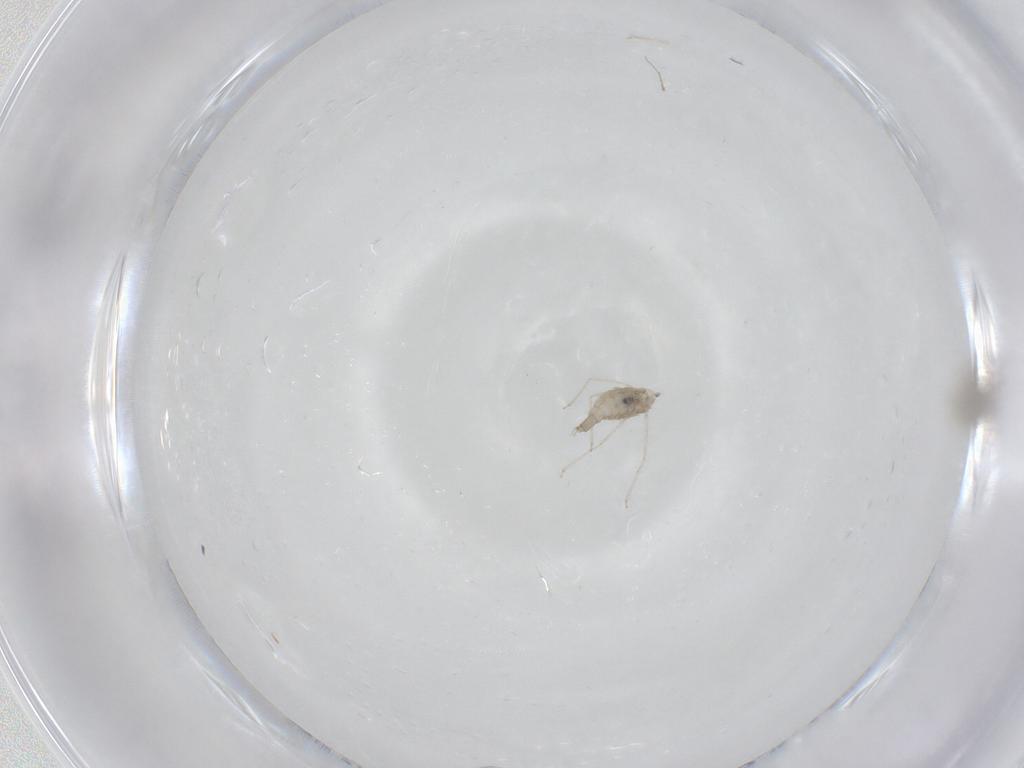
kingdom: Animalia
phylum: Arthropoda
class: Insecta
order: Diptera
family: Cecidomyiidae
